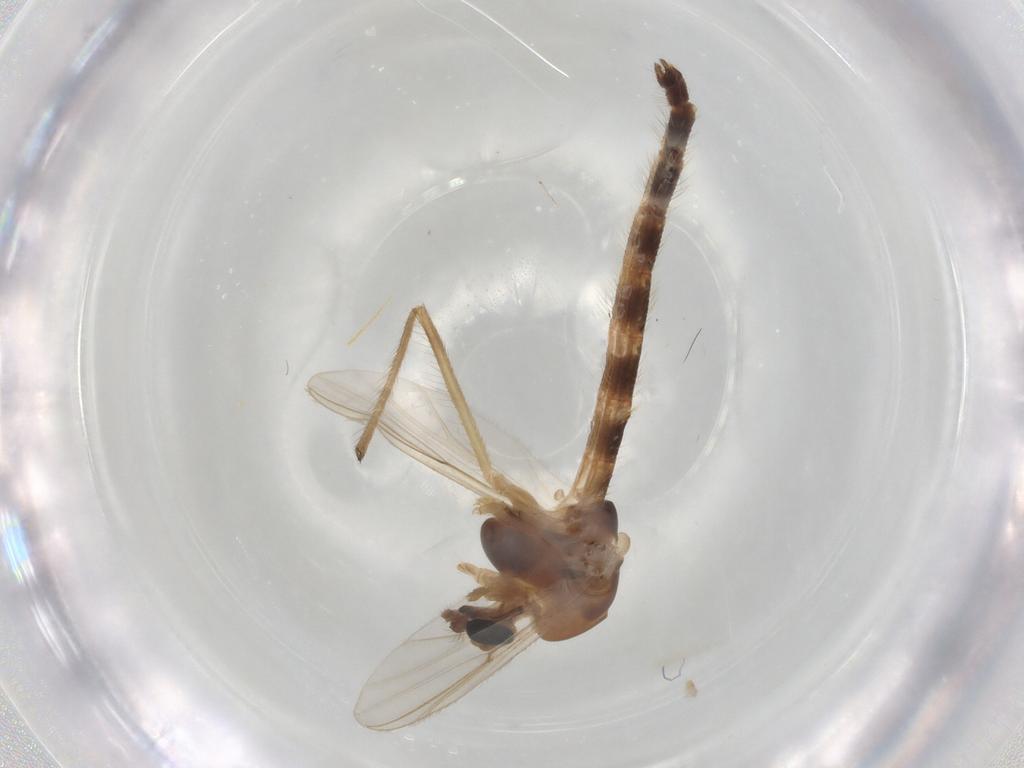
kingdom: Animalia
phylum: Arthropoda
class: Insecta
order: Diptera
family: Chironomidae
